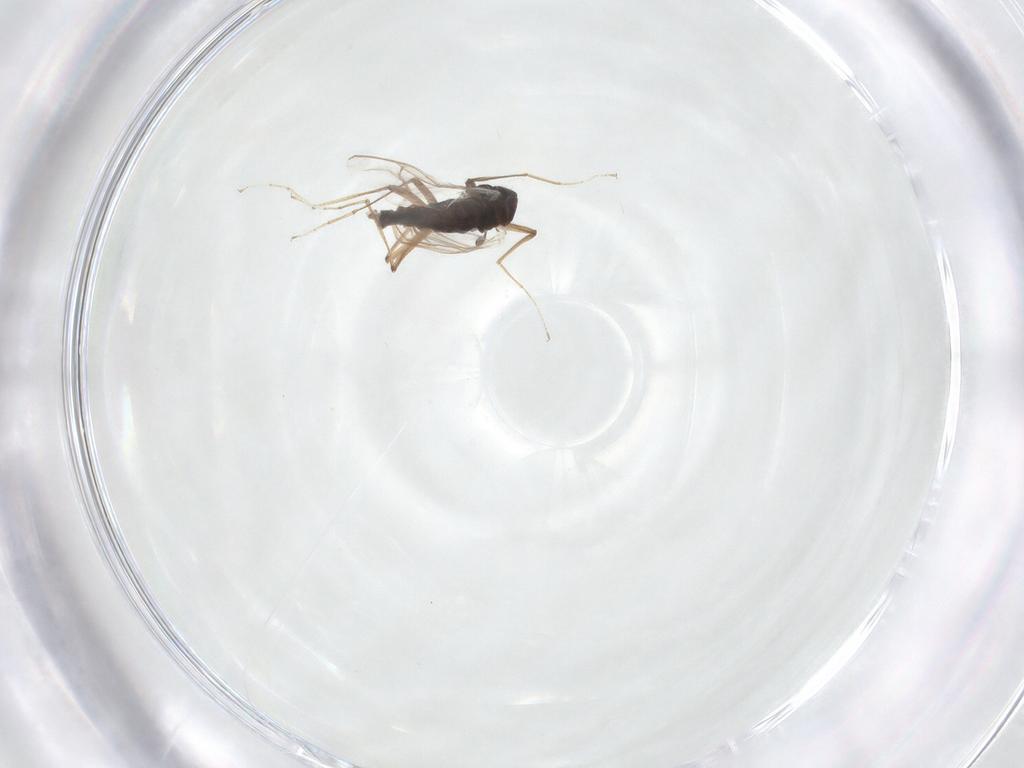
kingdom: Animalia
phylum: Arthropoda
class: Insecta
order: Diptera
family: Chironomidae
